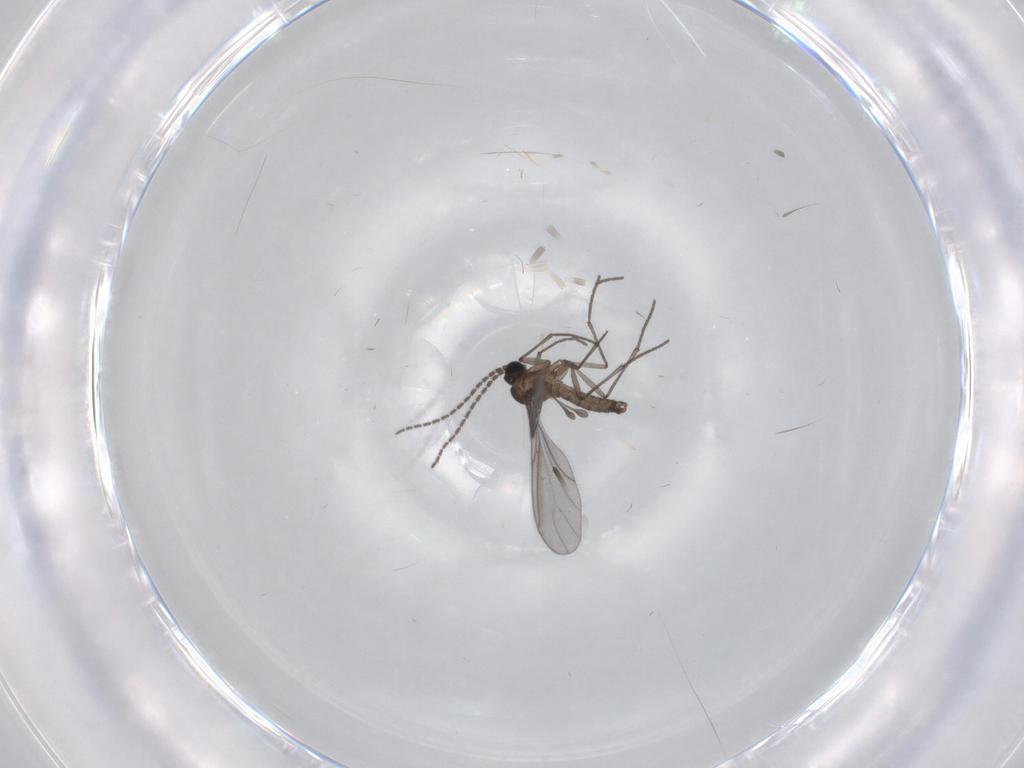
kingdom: Animalia
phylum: Arthropoda
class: Insecta
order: Diptera
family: Sciaridae
